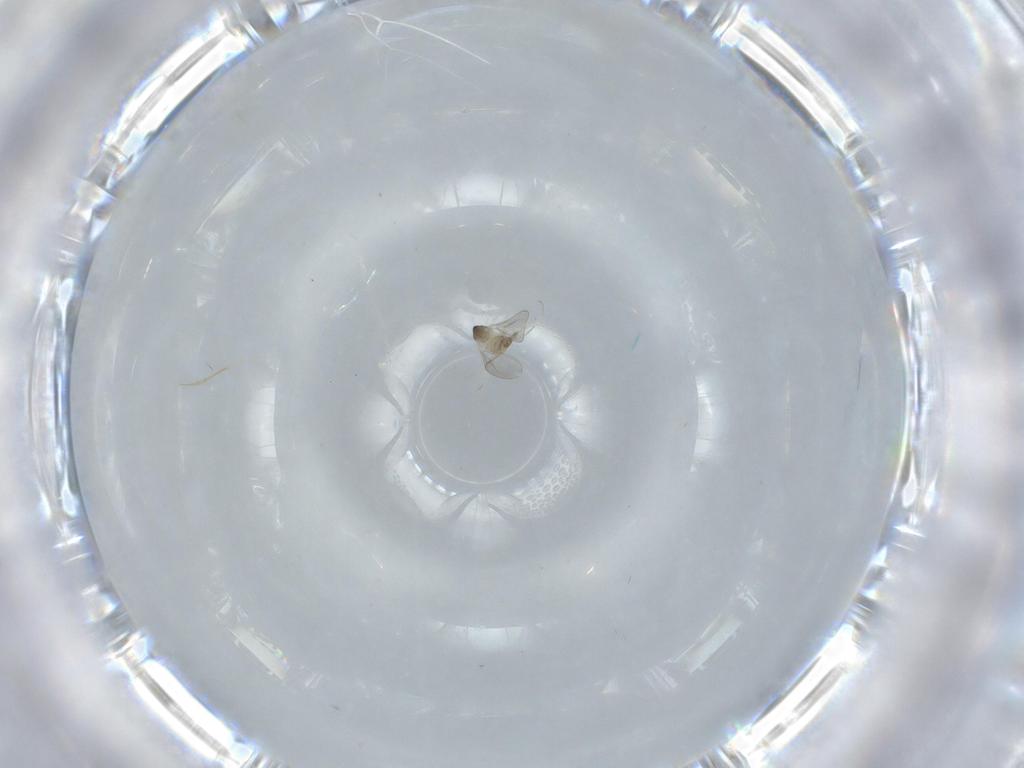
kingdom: Animalia
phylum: Arthropoda
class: Insecta
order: Diptera
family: Cecidomyiidae
